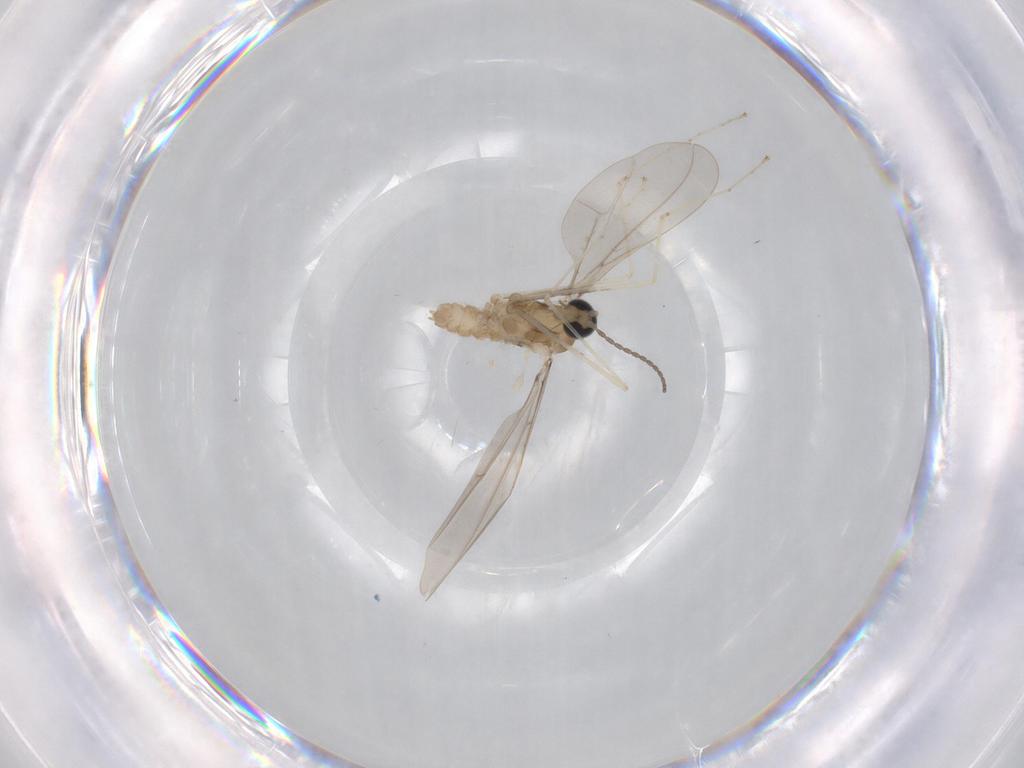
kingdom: Animalia
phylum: Arthropoda
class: Insecta
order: Diptera
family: Cecidomyiidae
